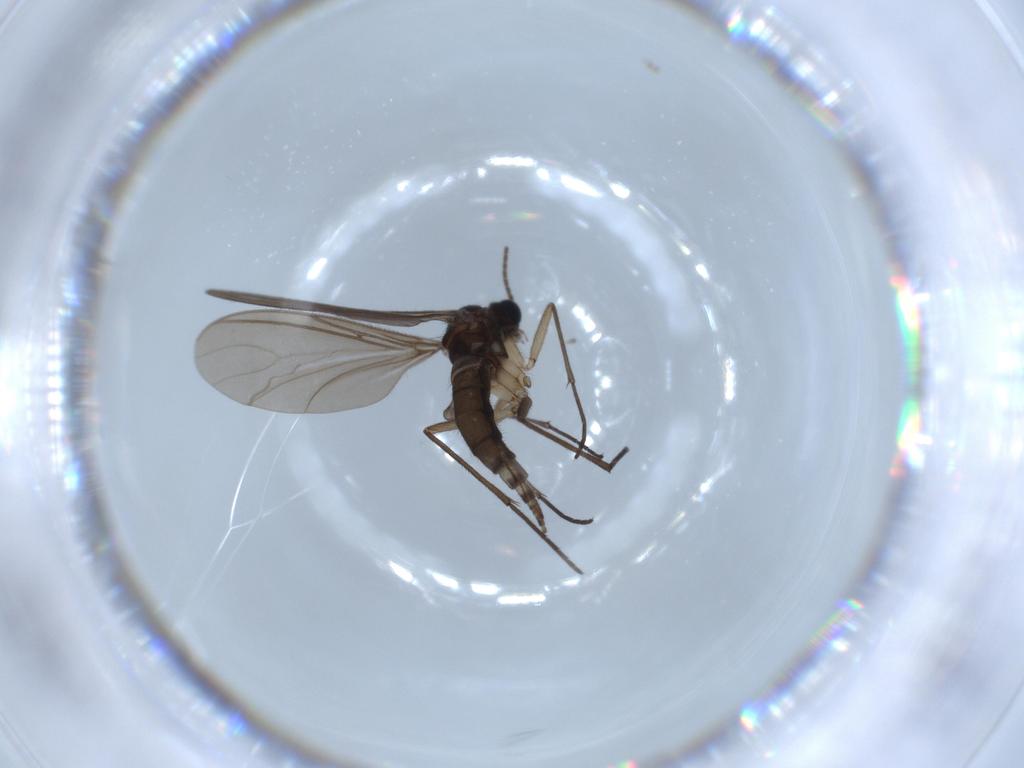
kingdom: Animalia
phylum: Arthropoda
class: Insecta
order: Diptera
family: Sciaridae
